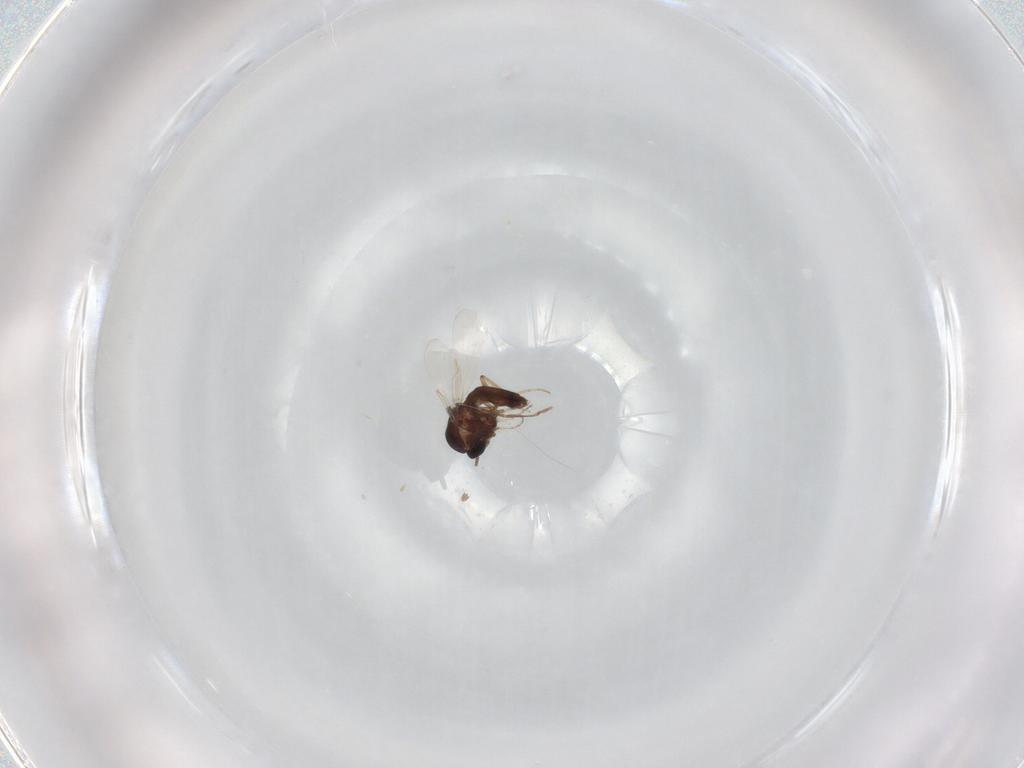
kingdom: Animalia
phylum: Arthropoda
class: Insecta
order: Diptera
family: Ceratopogonidae
